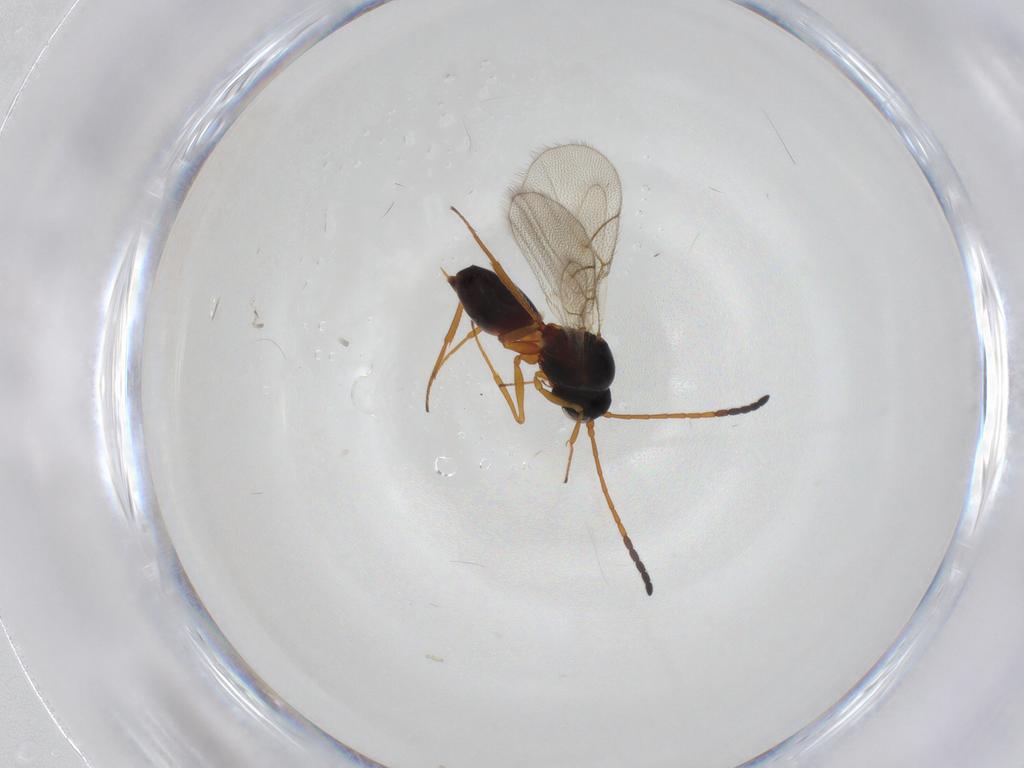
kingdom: Animalia
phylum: Arthropoda
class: Insecta
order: Hymenoptera
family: Figitidae
